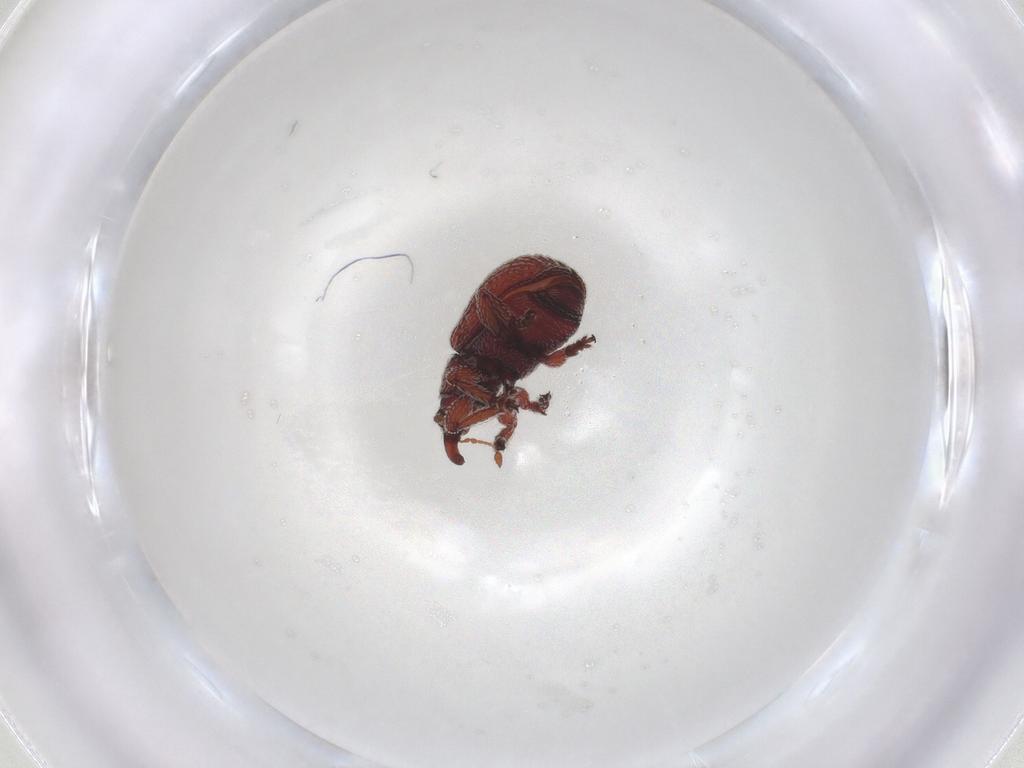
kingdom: Animalia
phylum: Arthropoda
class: Insecta
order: Coleoptera
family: Brentidae
